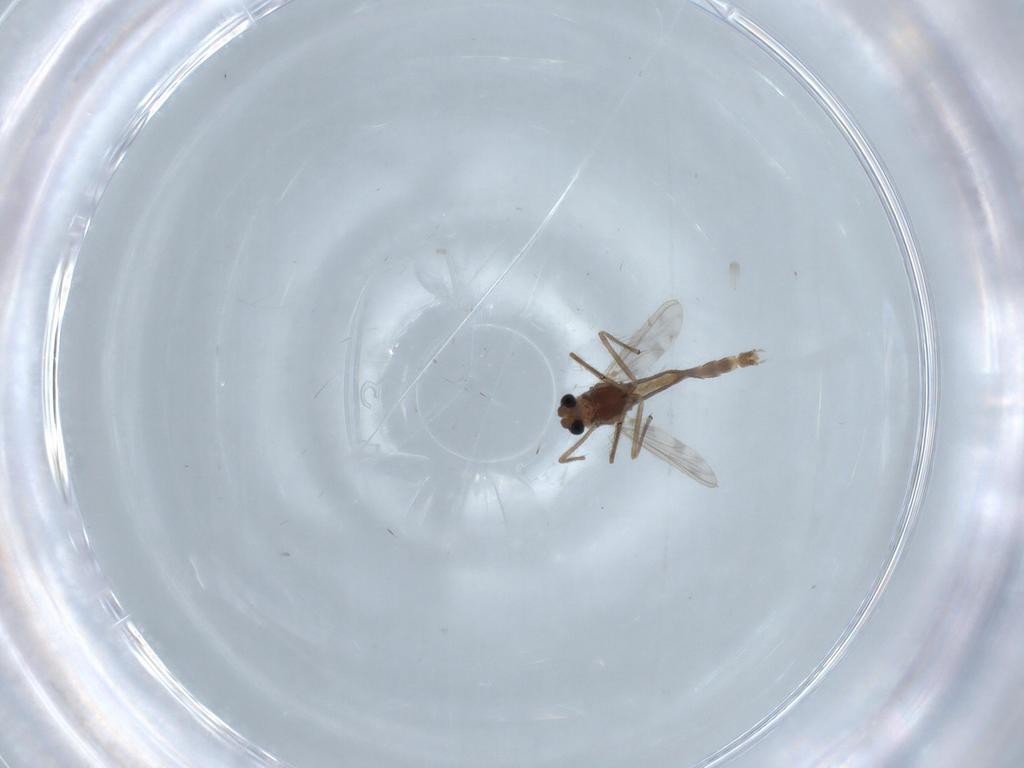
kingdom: Animalia
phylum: Arthropoda
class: Insecta
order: Diptera
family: Chironomidae
